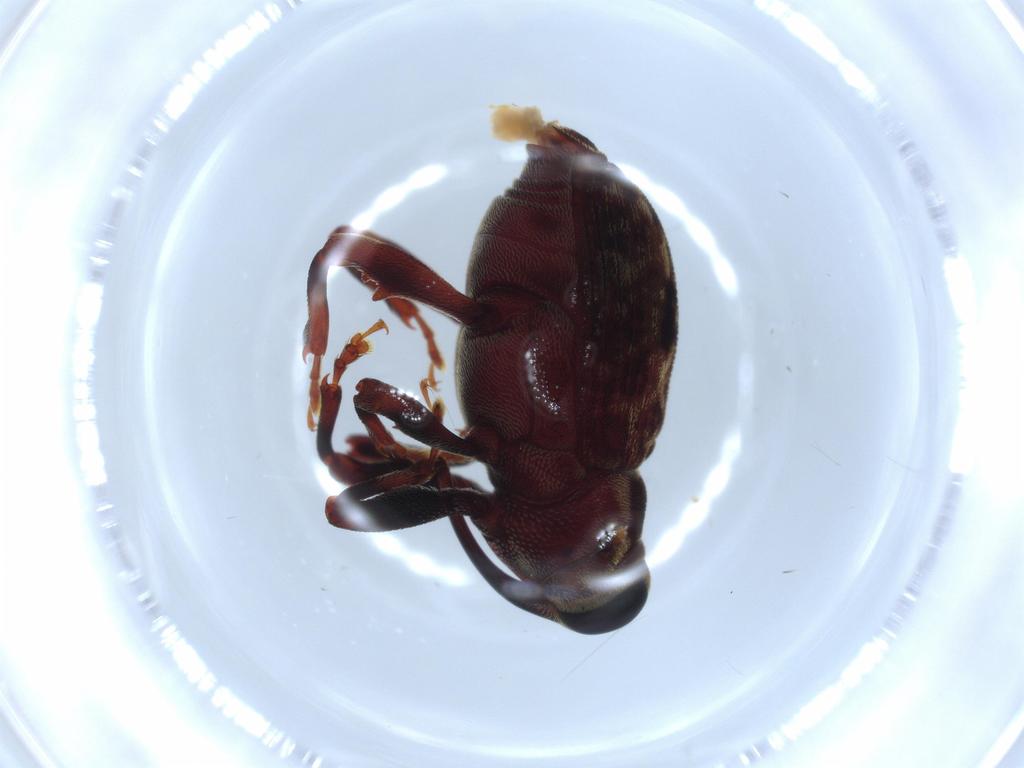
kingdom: Animalia
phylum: Arthropoda
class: Insecta
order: Coleoptera
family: Curculionidae
